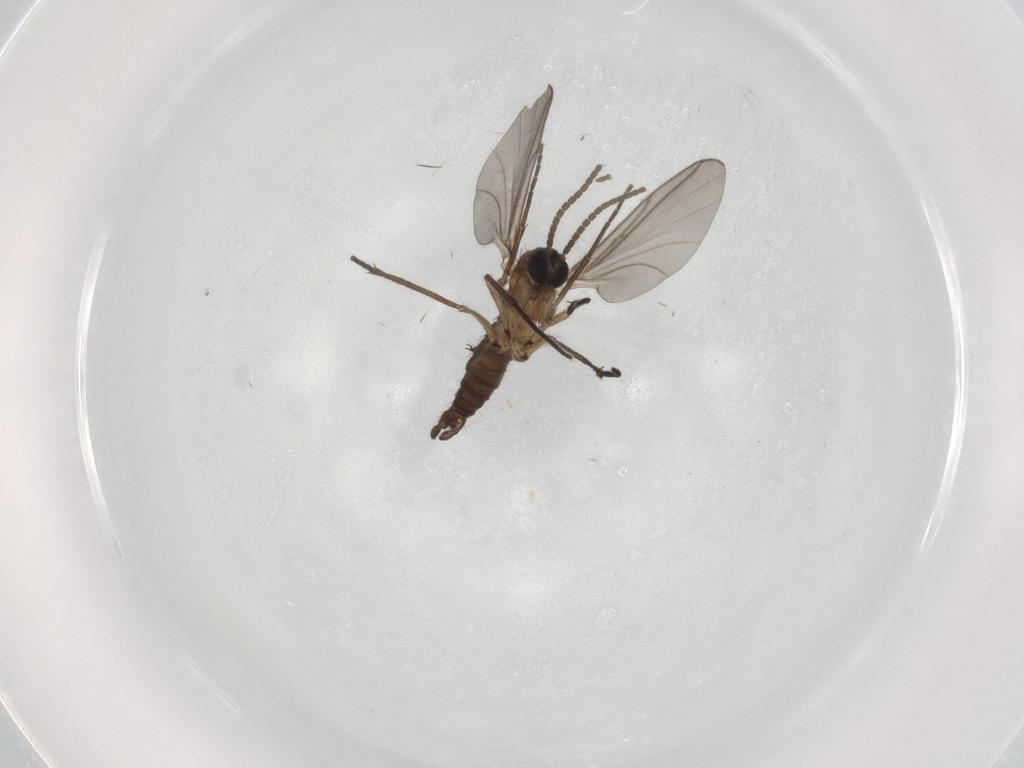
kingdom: Animalia
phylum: Arthropoda
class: Insecta
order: Diptera
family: Limoniidae
